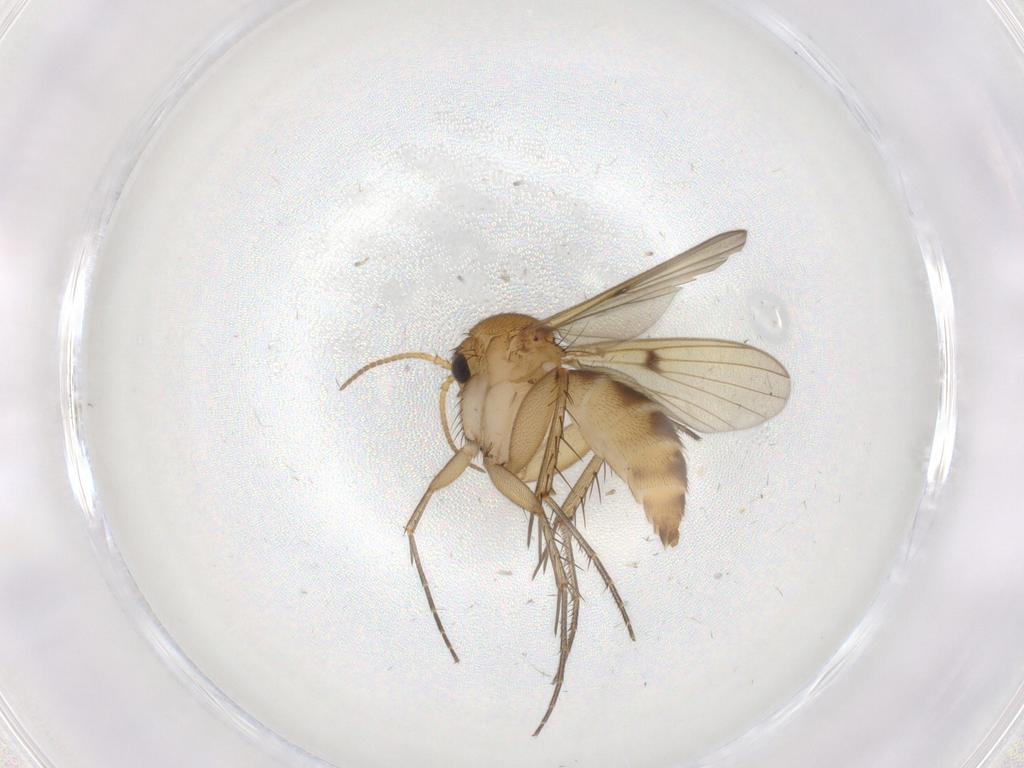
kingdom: Animalia
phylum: Arthropoda
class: Insecta
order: Diptera
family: Mycetophilidae
